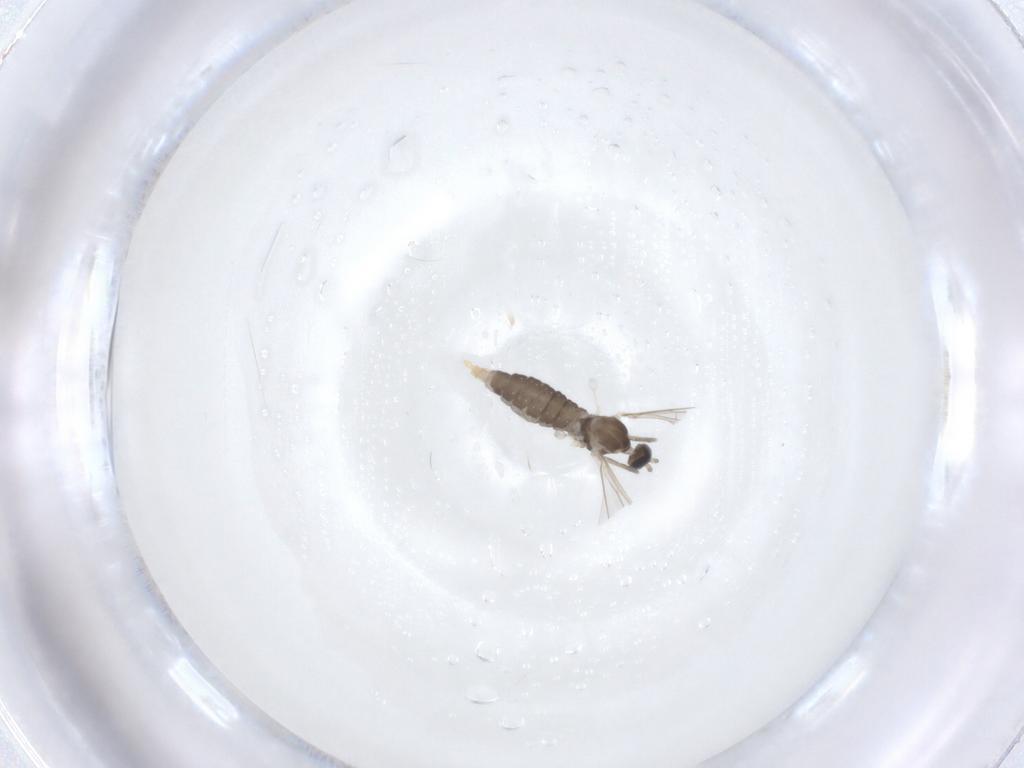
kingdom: Animalia
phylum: Arthropoda
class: Insecta
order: Diptera
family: Cecidomyiidae
